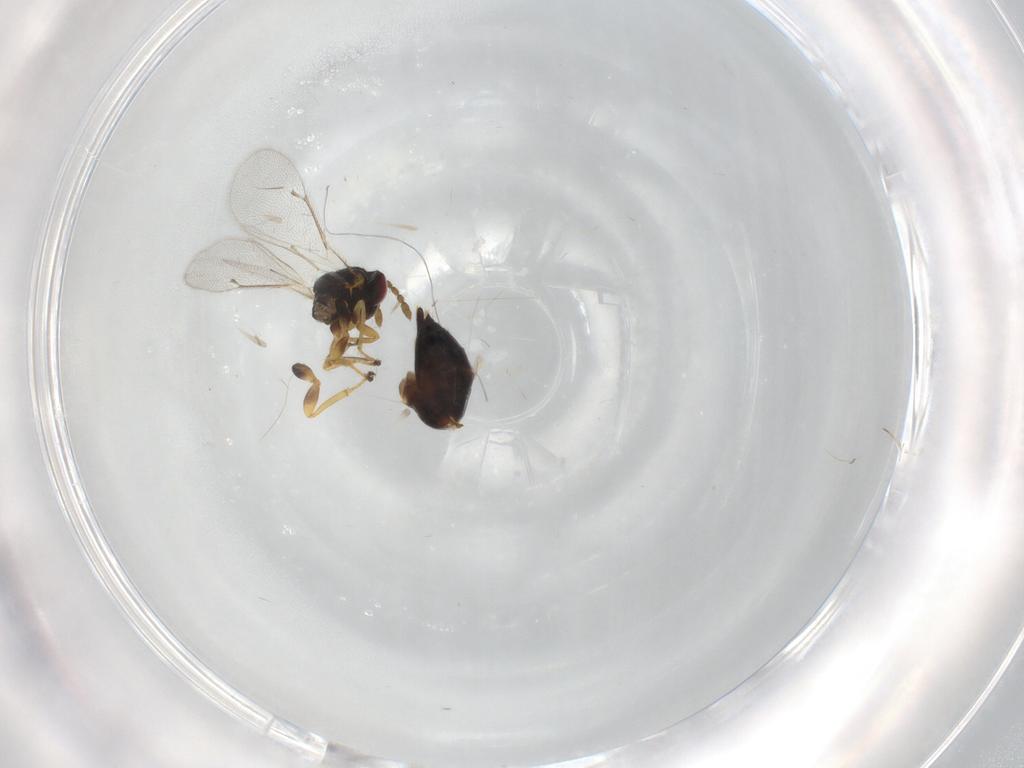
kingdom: Animalia
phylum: Arthropoda
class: Insecta
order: Hymenoptera
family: Eulophidae
